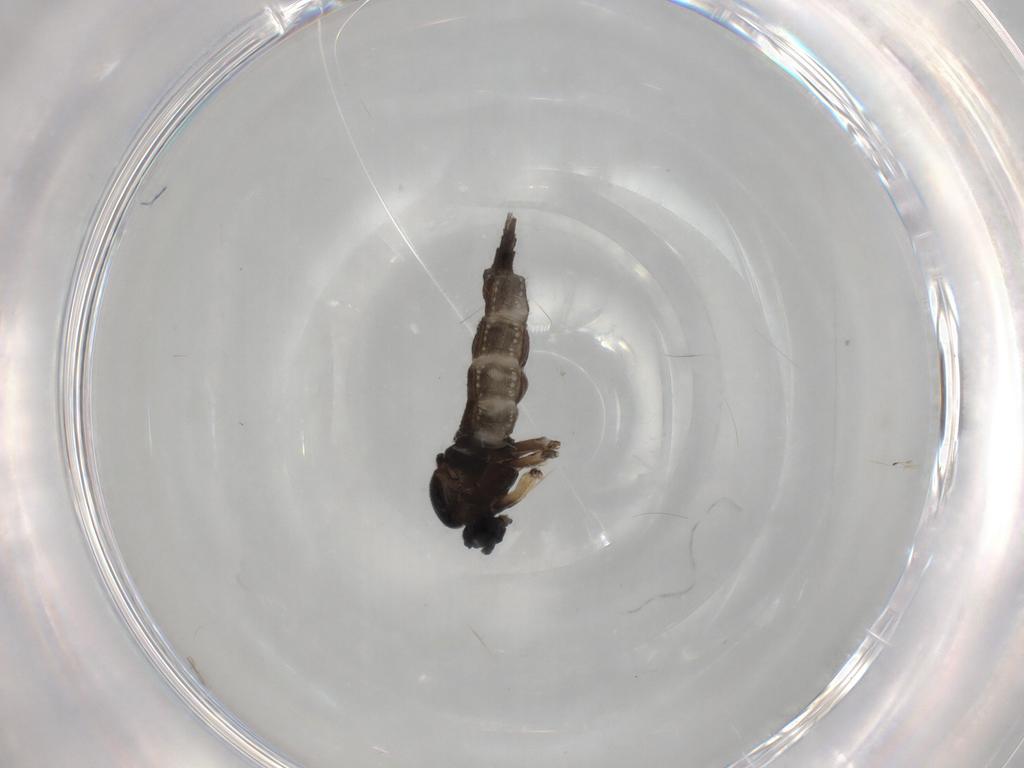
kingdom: Animalia
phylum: Arthropoda
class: Insecta
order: Diptera
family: Sciaridae
